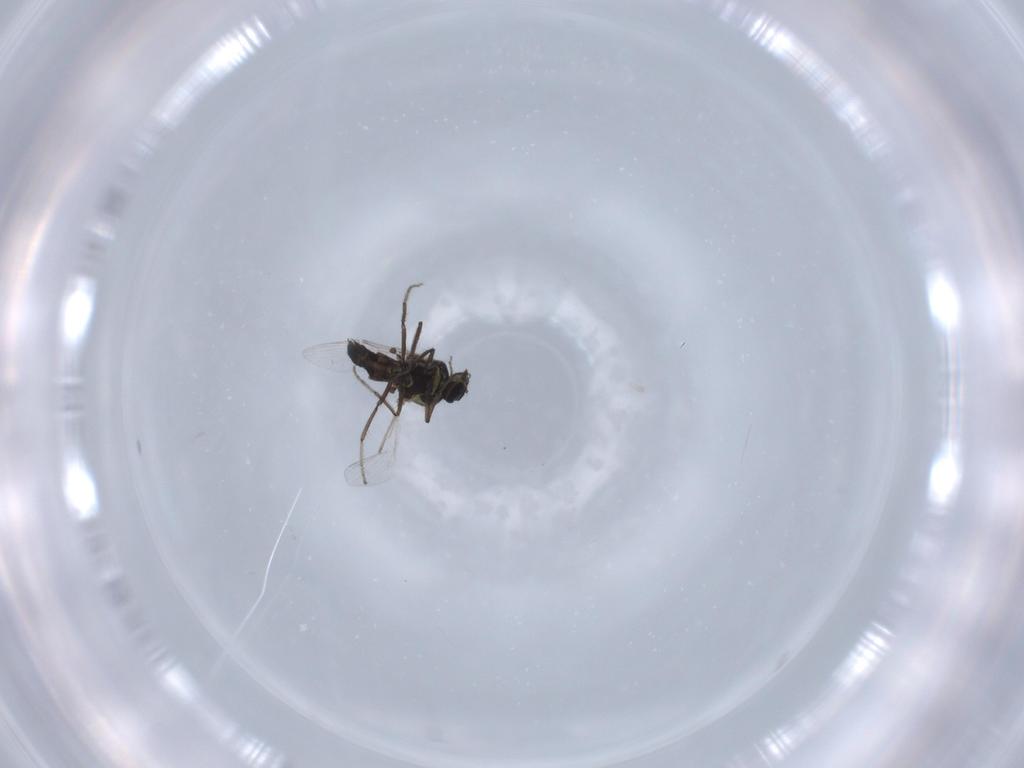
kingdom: Animalia
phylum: Arthropoda
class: Insecta
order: Diptera
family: Ceratopogonidae
